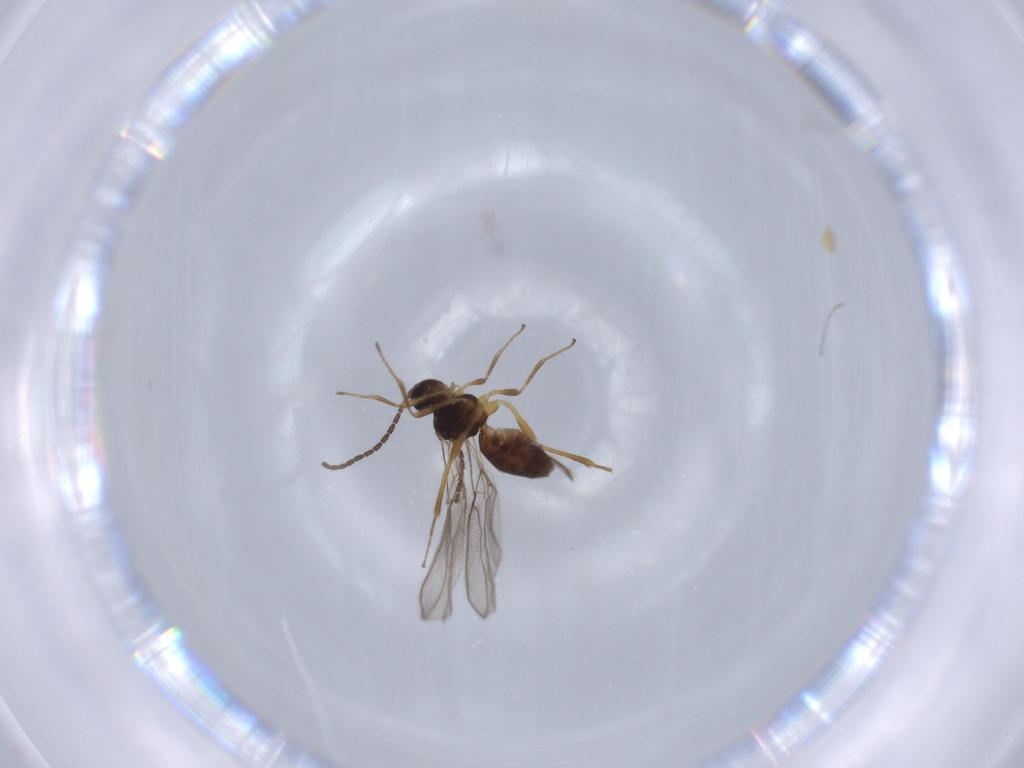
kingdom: Animalia
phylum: Arthropoda
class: Insecta
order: Hymenoptera
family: Braconidae
